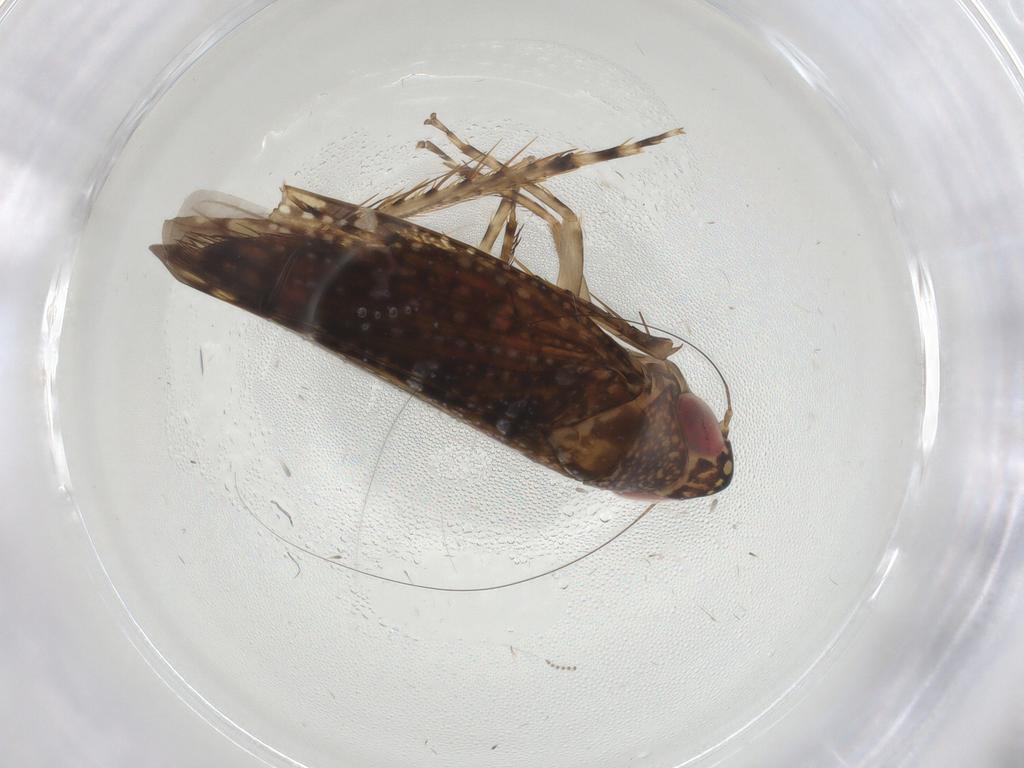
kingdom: Animalia
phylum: Arthropoda
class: Insecta
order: Hemiptera
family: Cicadellidae
